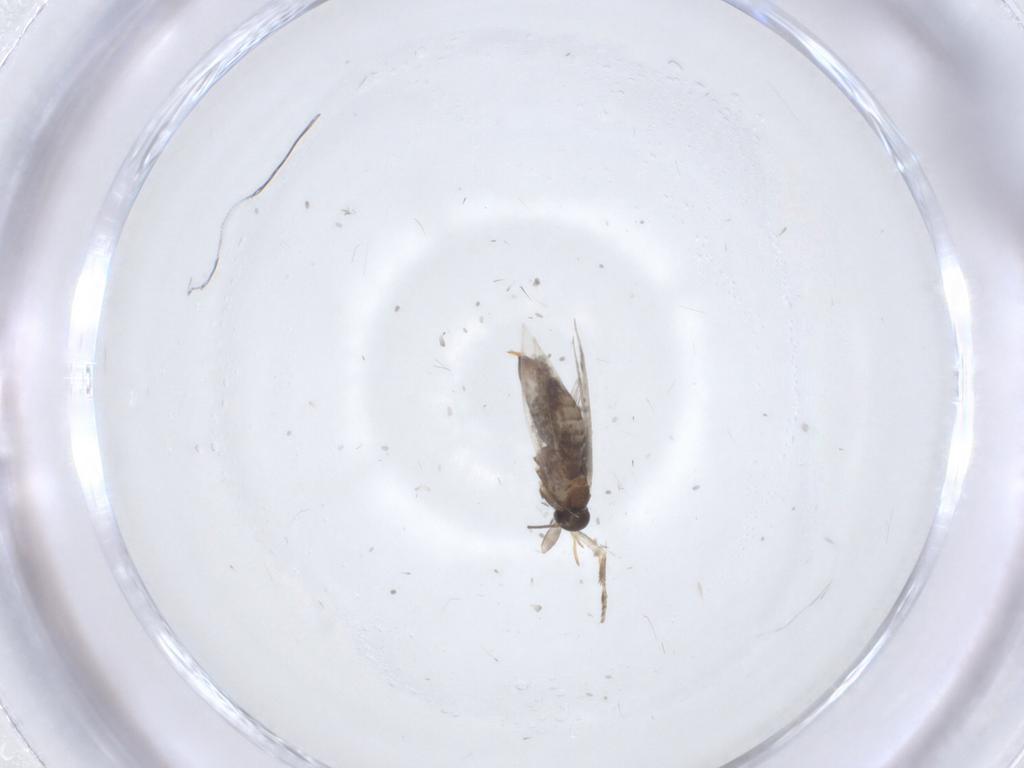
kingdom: Animalia
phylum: Arthropoda
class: Insecta
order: Lepidoptera
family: Heliozelidae
